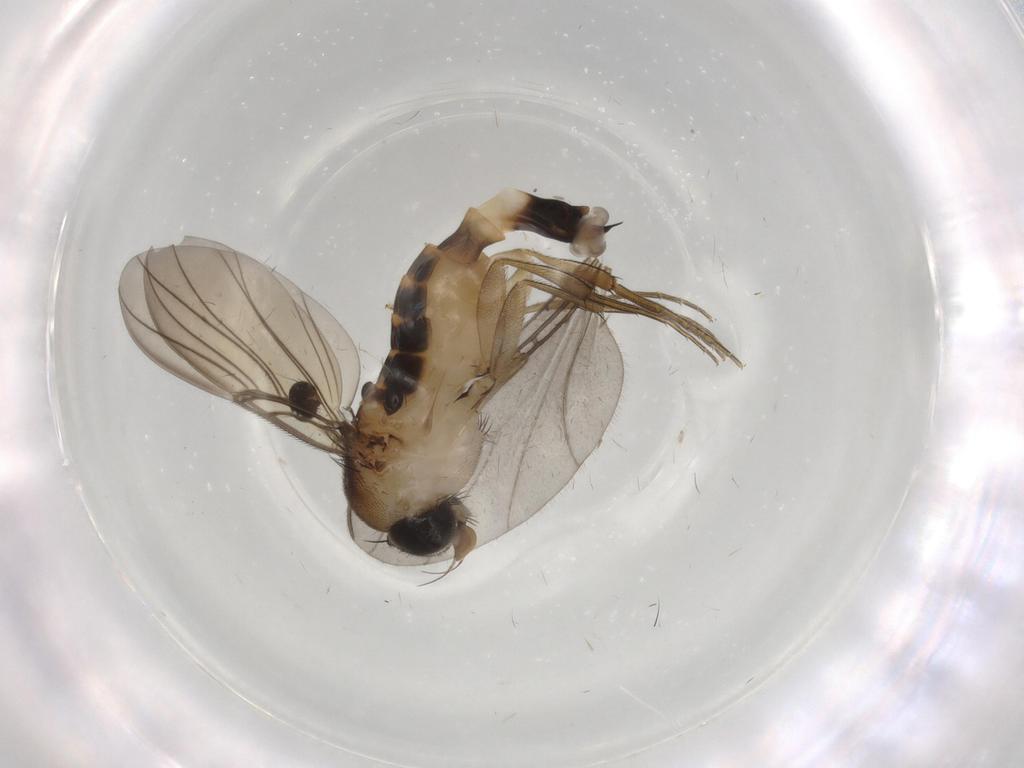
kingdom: Animalia
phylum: Arthropoda
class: Insecta
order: Diptera
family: Phoridae
